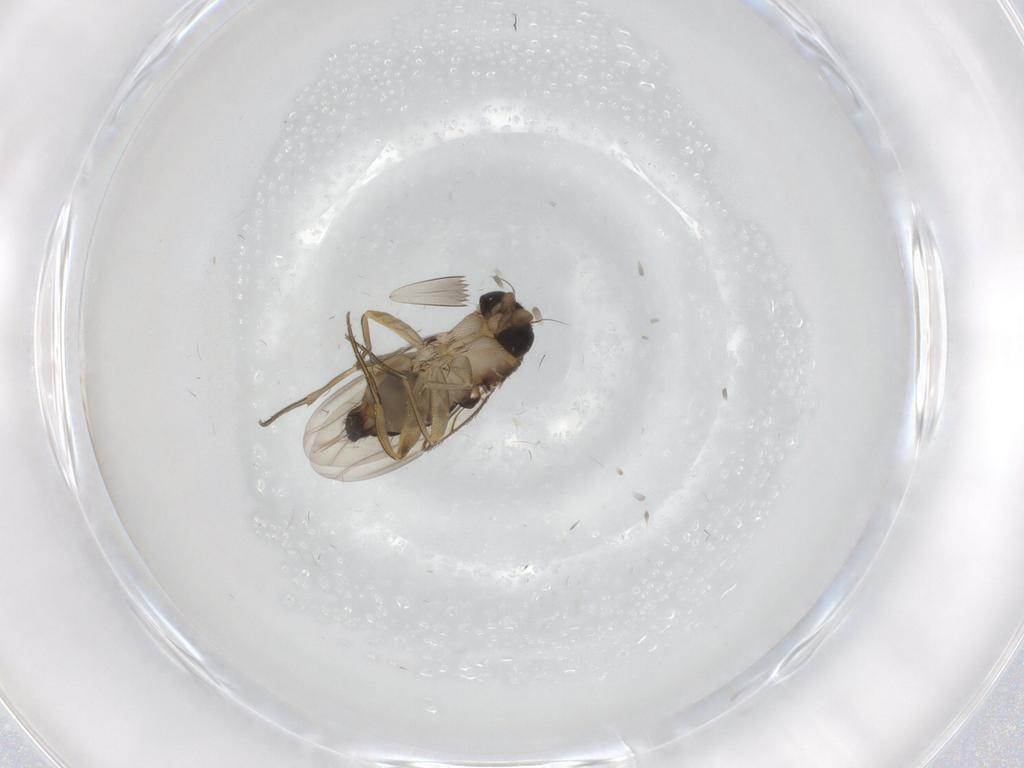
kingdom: Animalia
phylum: Arthropoda
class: Insecta
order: Diptera
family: Phoridae
